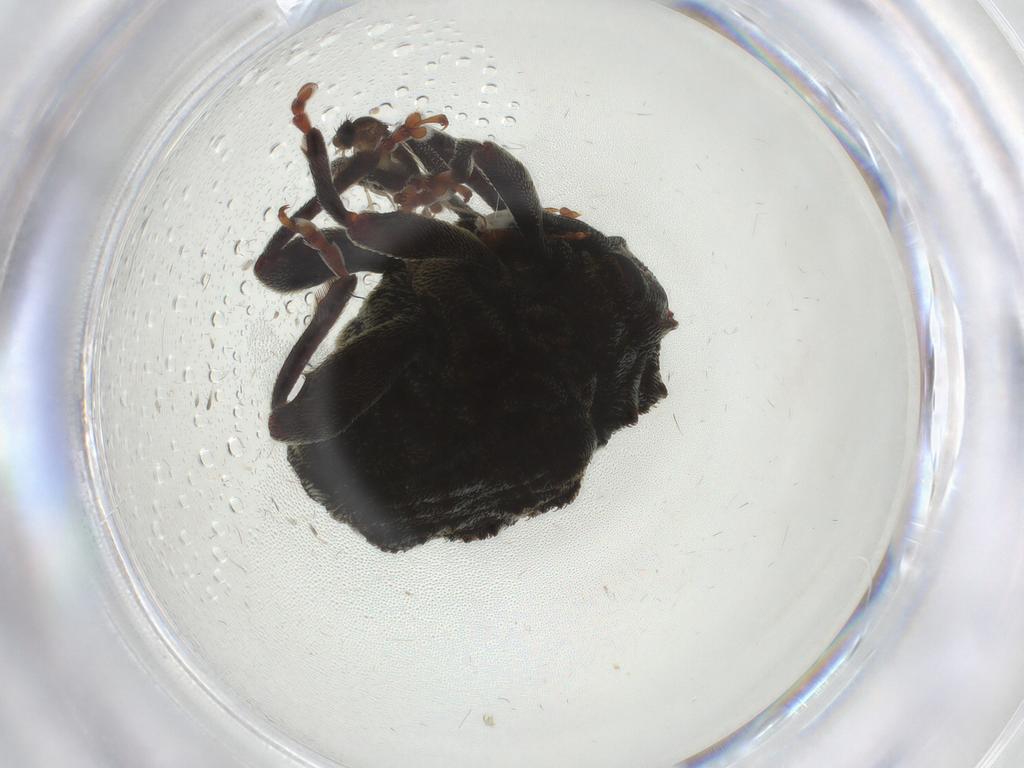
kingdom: Animalia
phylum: Arthropoda
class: Insecta
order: Coleoptera
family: Curculionidae
